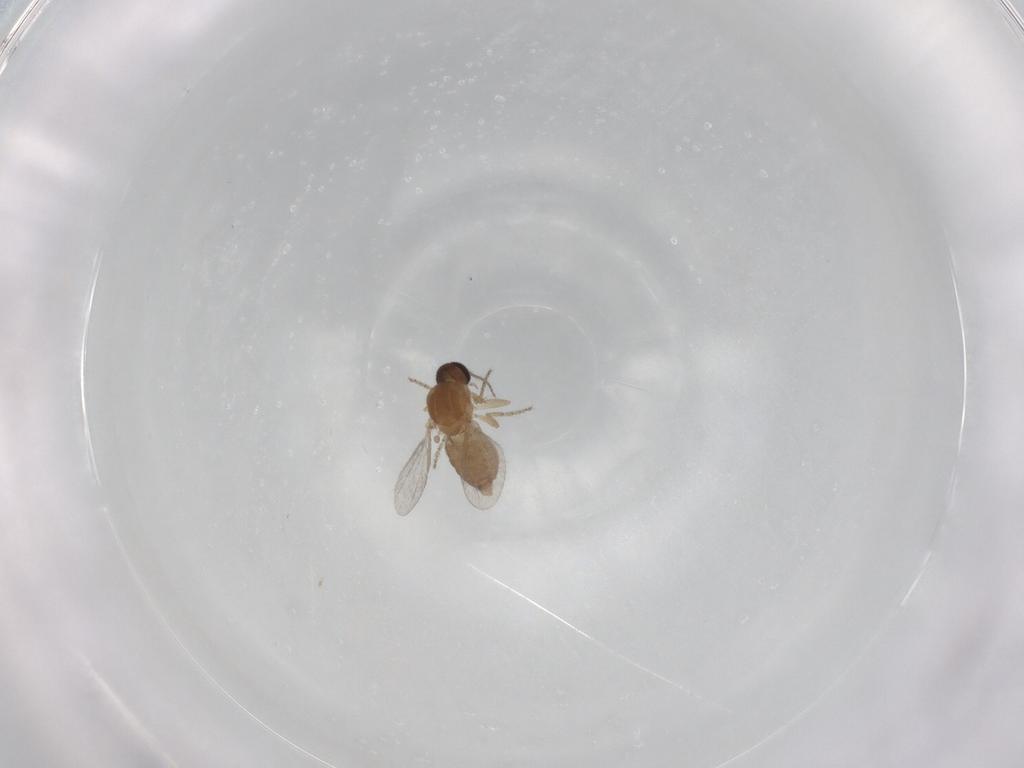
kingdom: Animalia
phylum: Arthropoda
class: Insecta
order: Diptera
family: Ceratopogonidae
